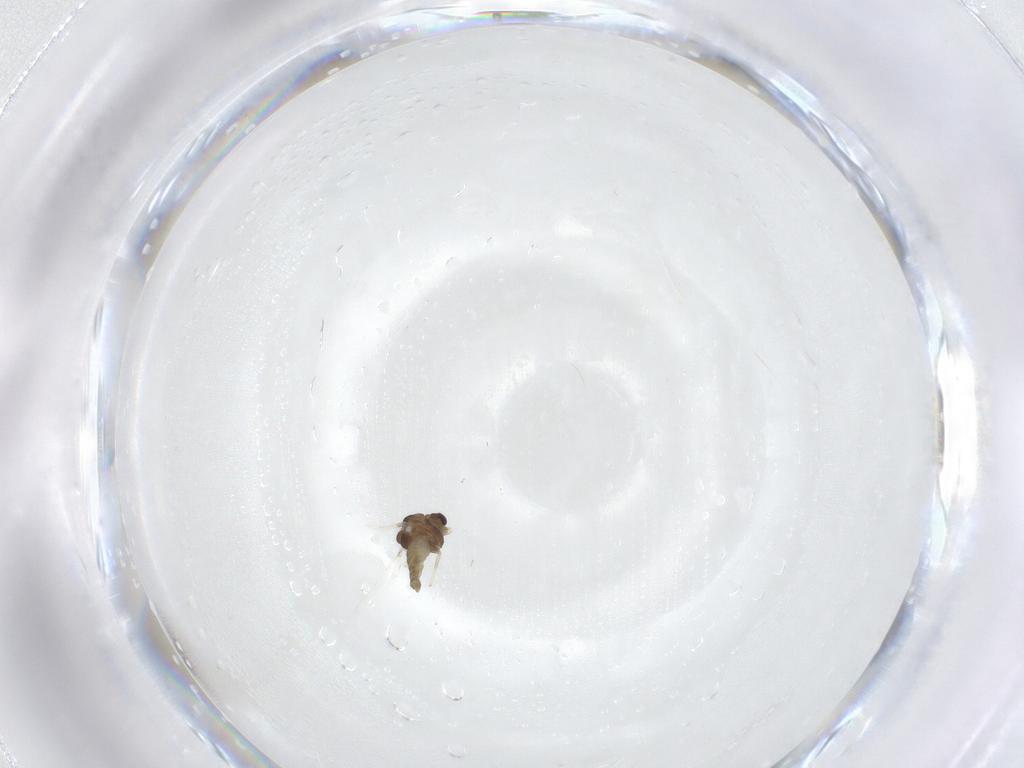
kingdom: Animalia
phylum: Arthropoda
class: Insecta
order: Diptera
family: Chironomidae
